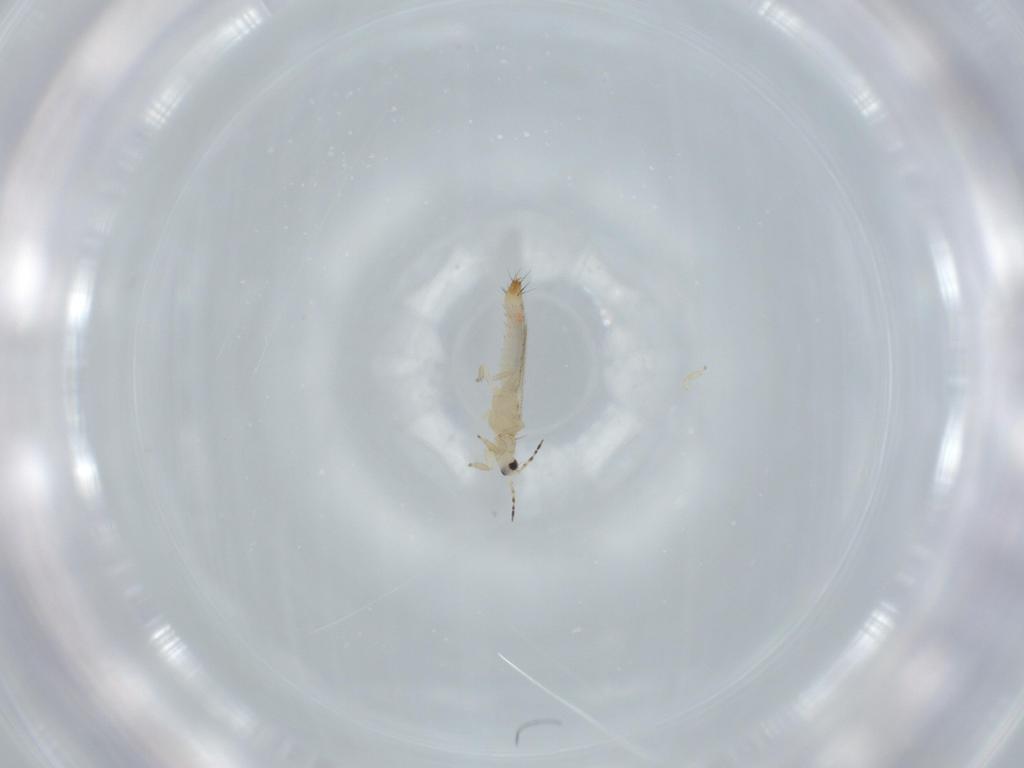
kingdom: Animalia
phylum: Arthropoda
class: Insecta
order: Thysanoptera
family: Thripidae
